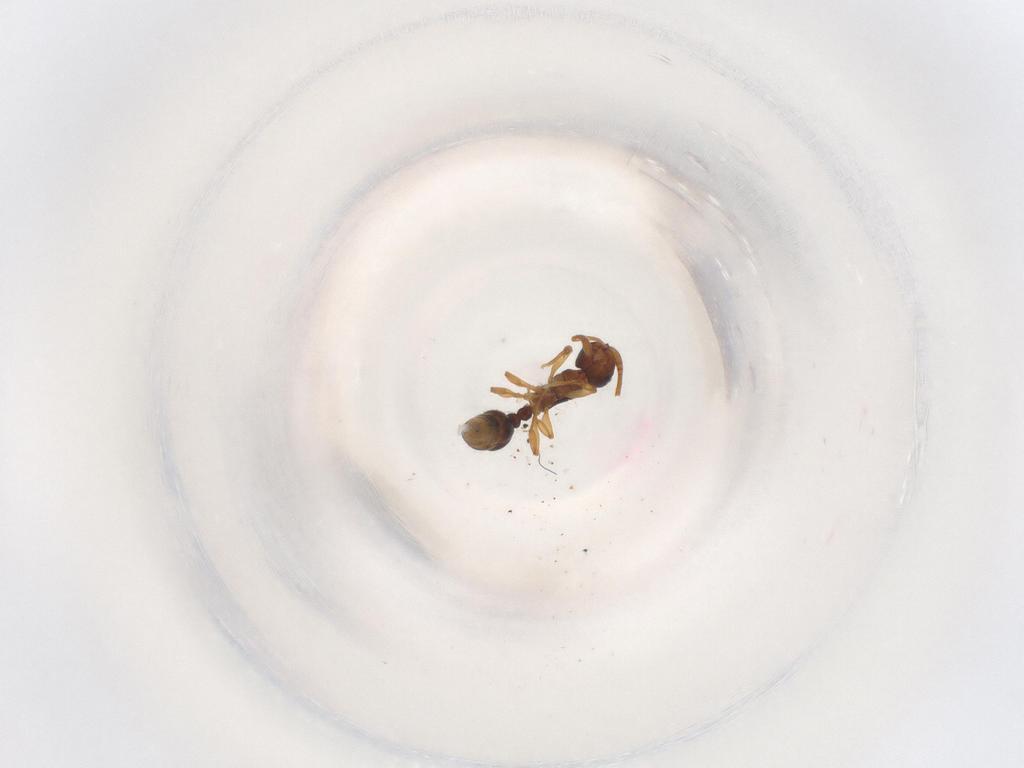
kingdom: Animalia
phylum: Arthropoda
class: Insecta
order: Hymenoptera
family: Formicidae
